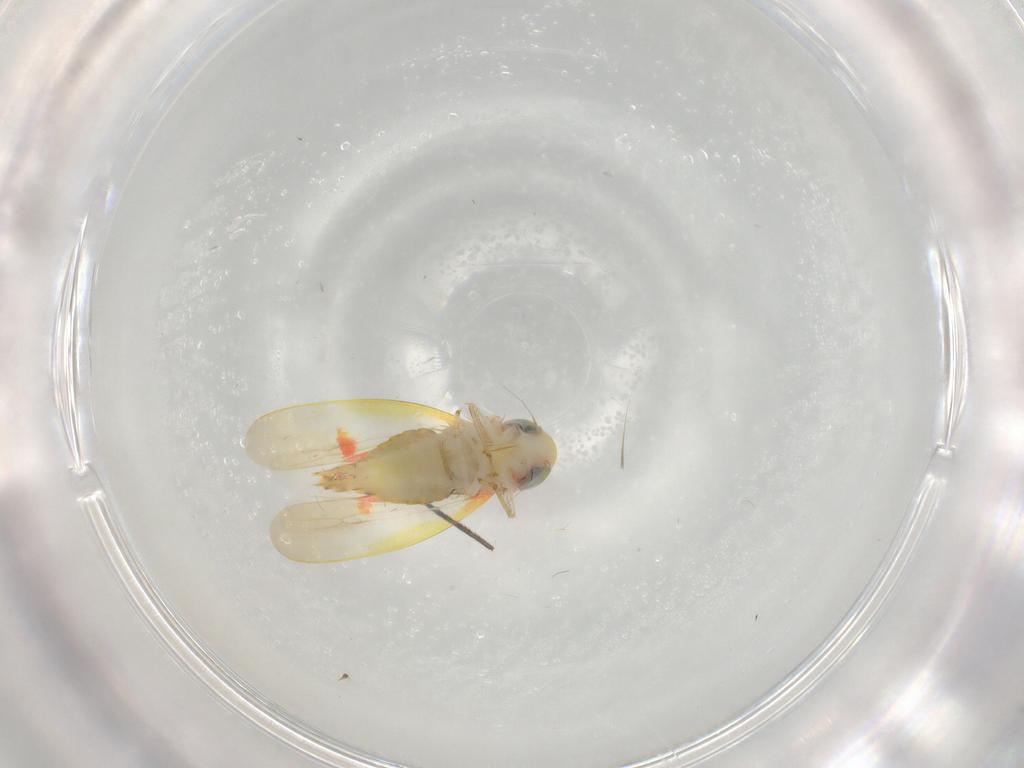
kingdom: Animalia
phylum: Arthropoda
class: Insecta
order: Hemiptera
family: Cicadellidae
